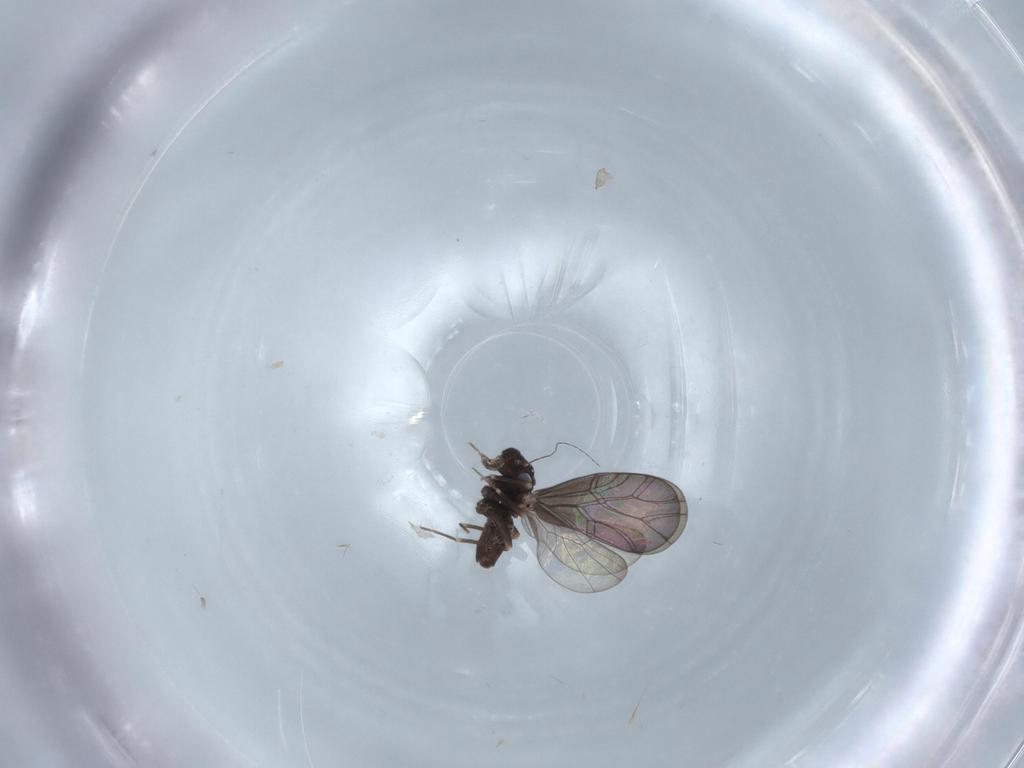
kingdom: Animalia
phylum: Arthropoda
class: Insecta
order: Psocodea
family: Lepidopsocidae
